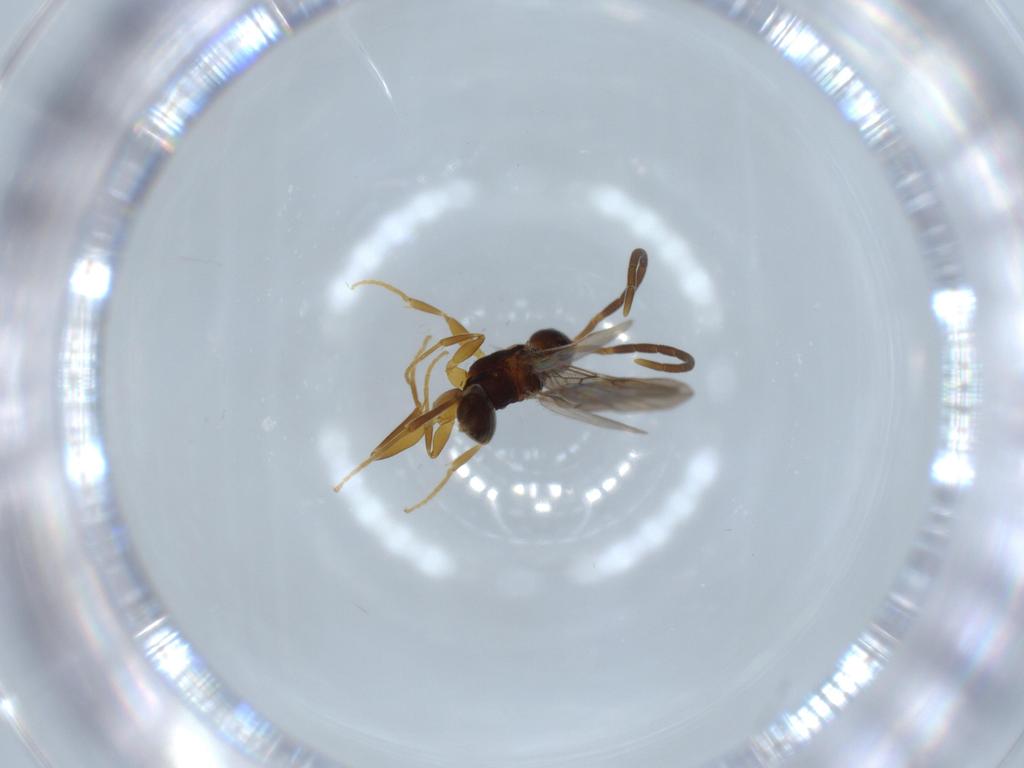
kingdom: Animalia
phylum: Arthropoda
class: Insecta
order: Hymenoptera
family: Embolemidae
